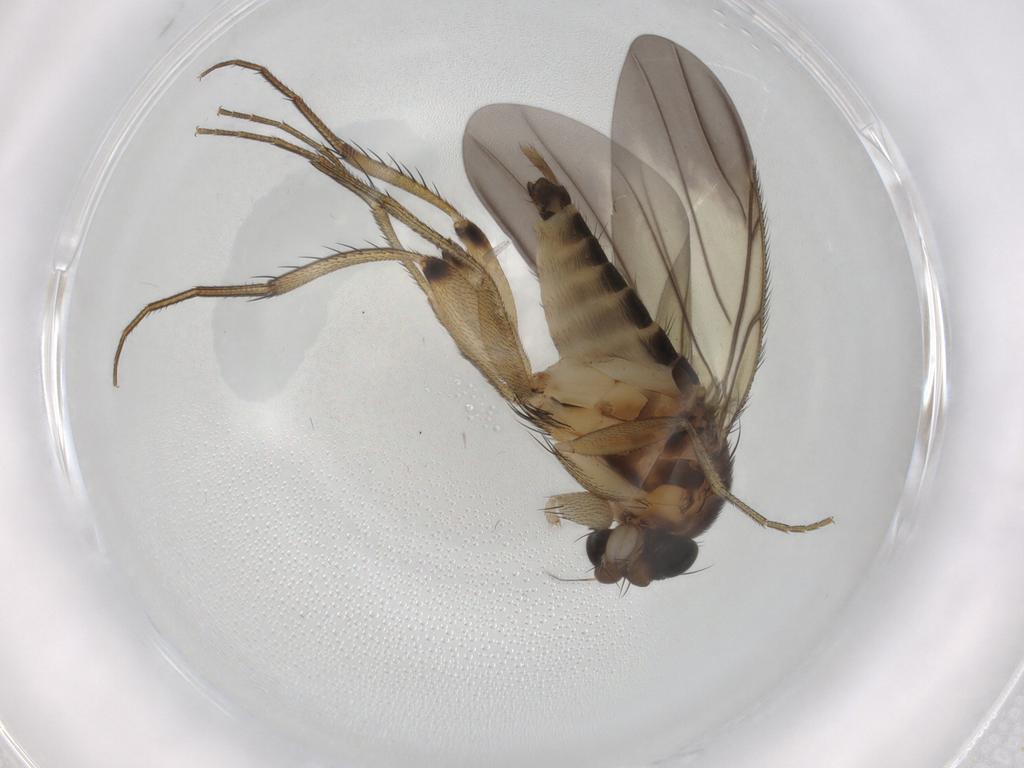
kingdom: Animalia
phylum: Arthropoda
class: Insecta
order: Diptera
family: Phoridae
